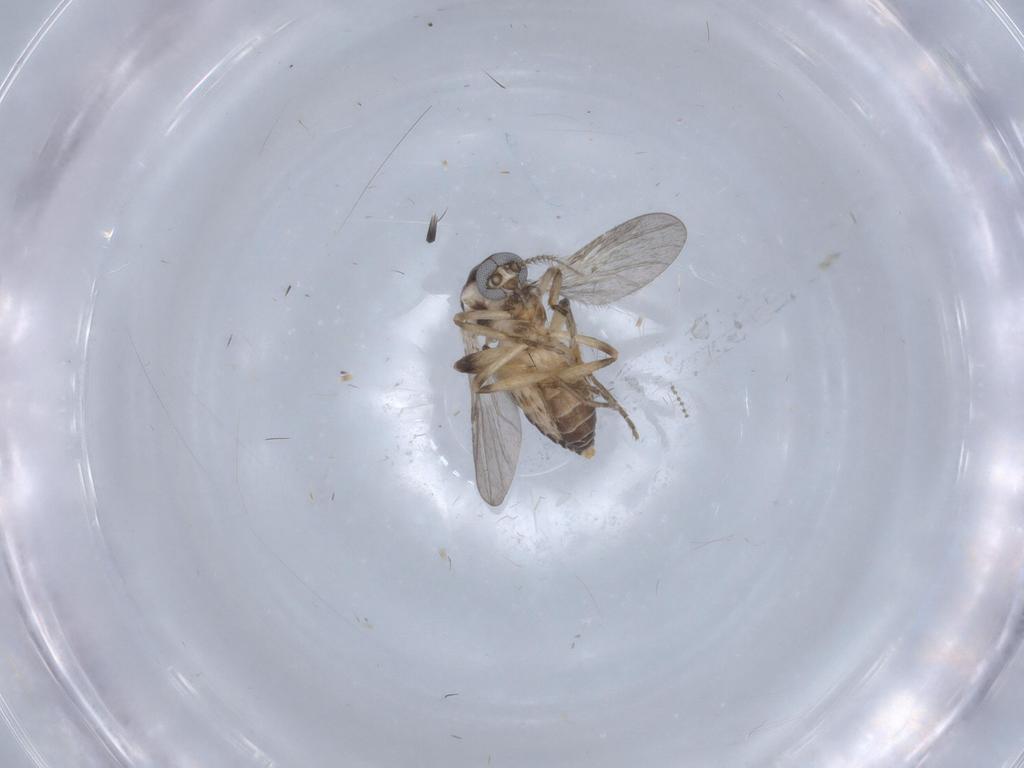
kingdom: Animalia
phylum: Arthropoda
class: Insecta
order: Diptera
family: Ceratopogonidae
